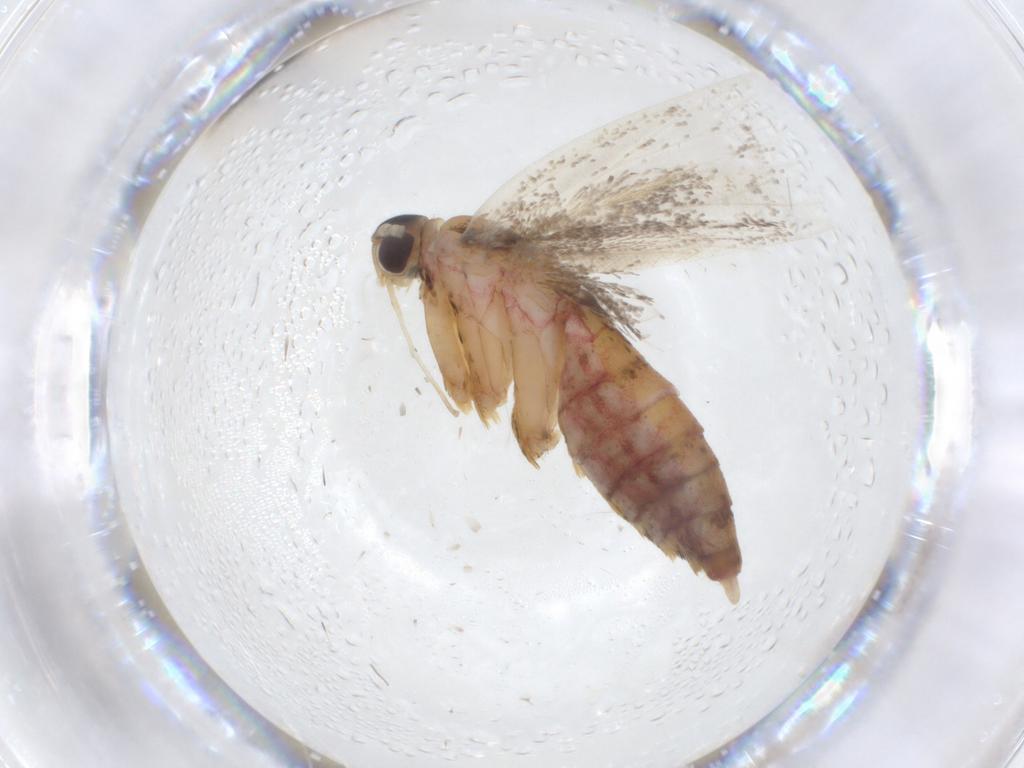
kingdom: Animalia
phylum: Arthropoda
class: Insecta
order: Lepidoptera
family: Lecithoceridae
